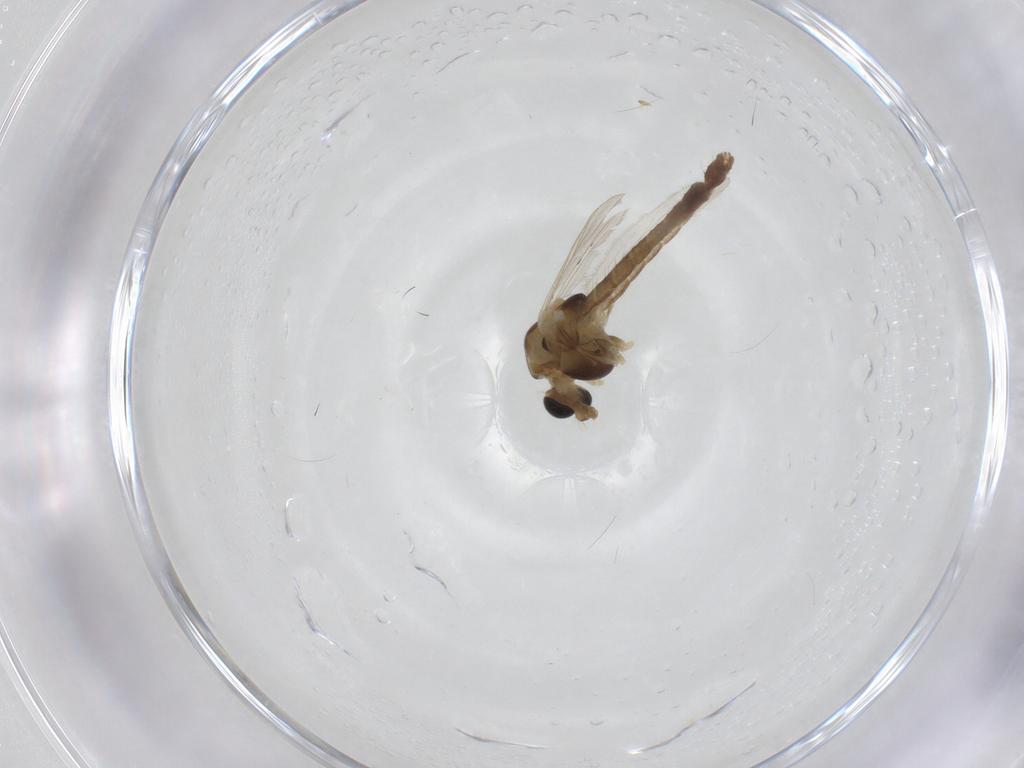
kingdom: Animalia
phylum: Arthropoda
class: Insecta
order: Diptera
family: Chironomidae
